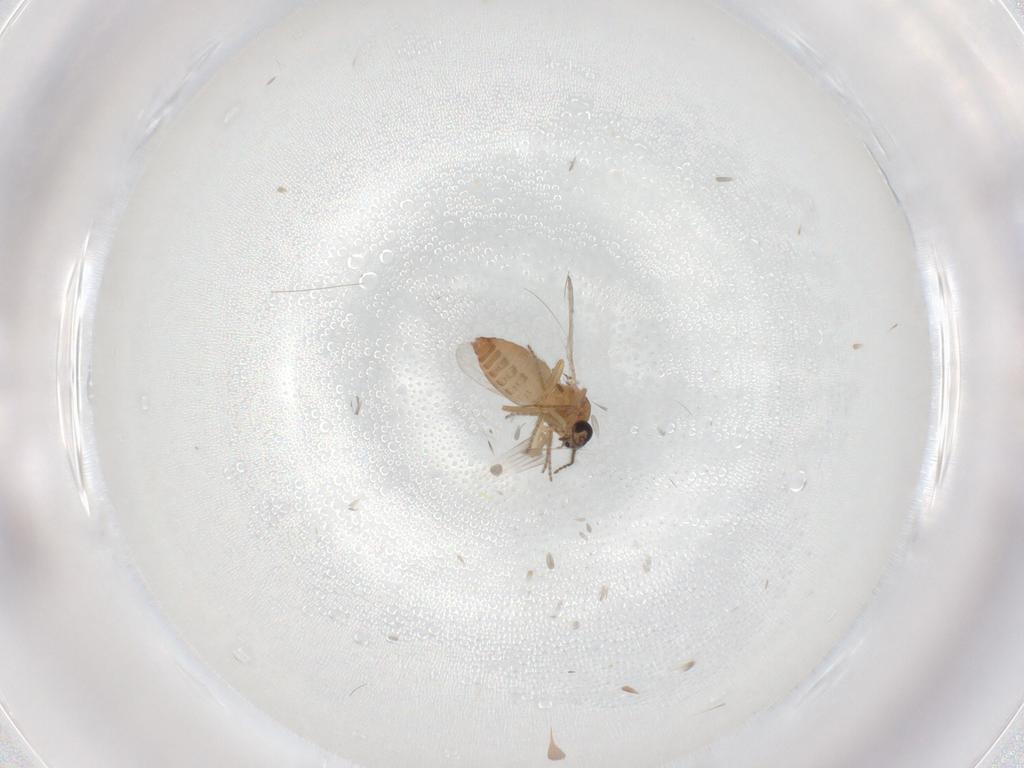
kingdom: Animalia
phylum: Arthropoda
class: Insecta
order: Diptera
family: Ceratopogonidae
